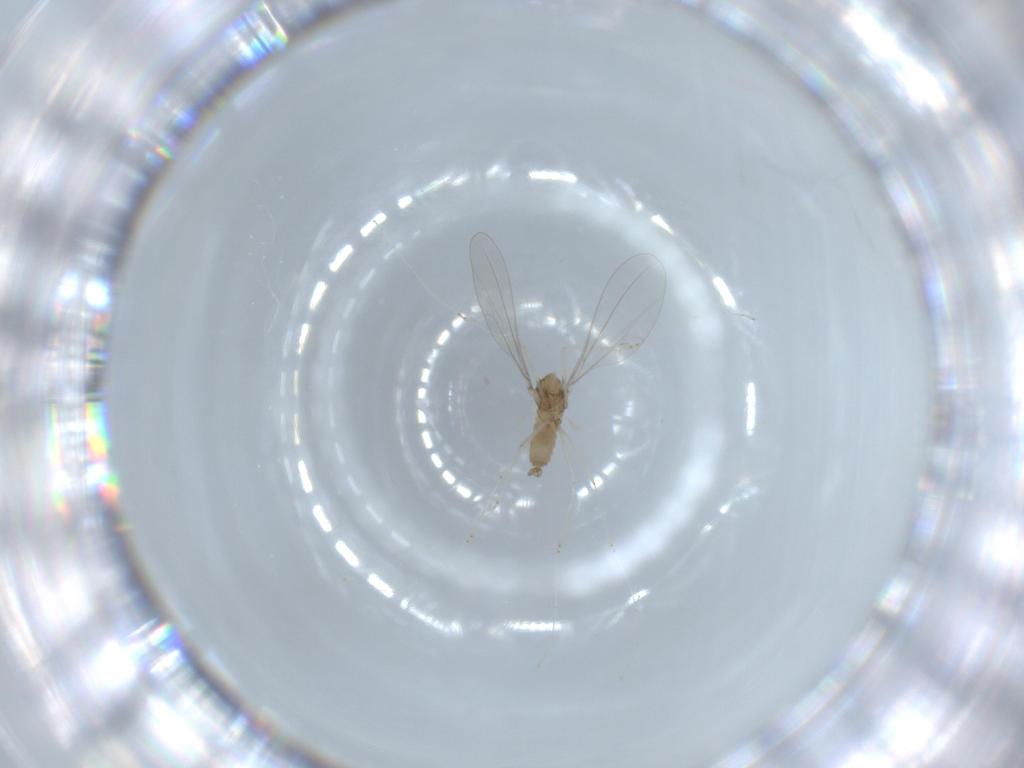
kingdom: Animalia
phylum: Arthropoda
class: Insecta
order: Diptera
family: Cecidomyiidae
